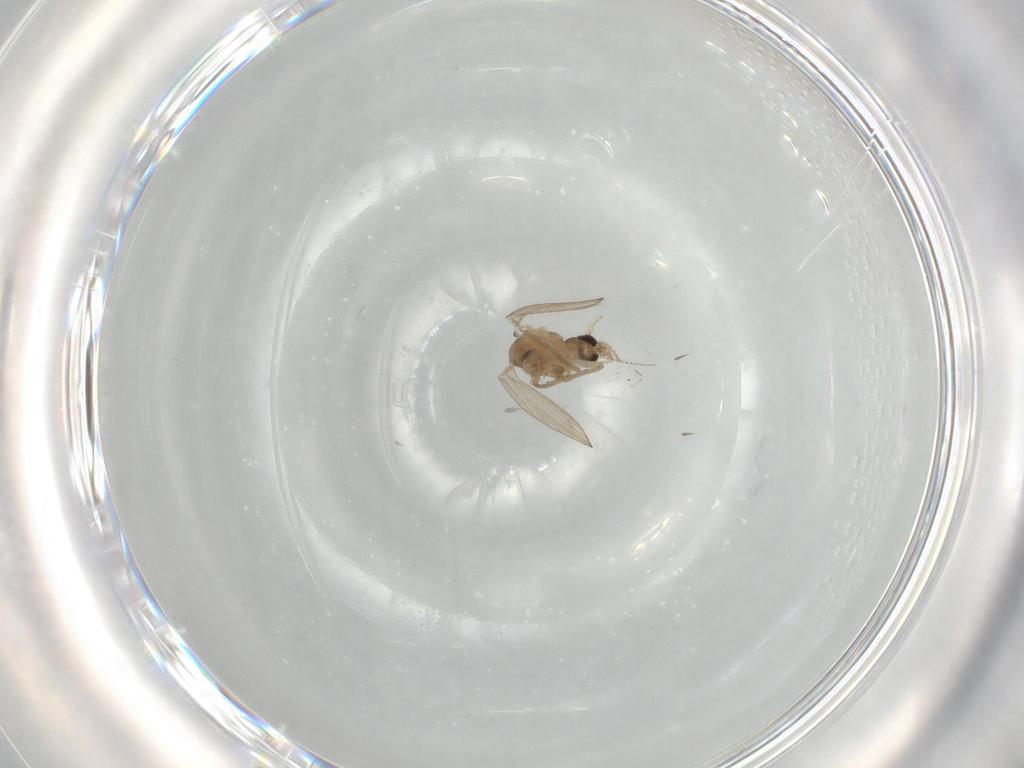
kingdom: Animalia
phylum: Arthropoda
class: Insecta
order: Diptera
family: Psychodidae
